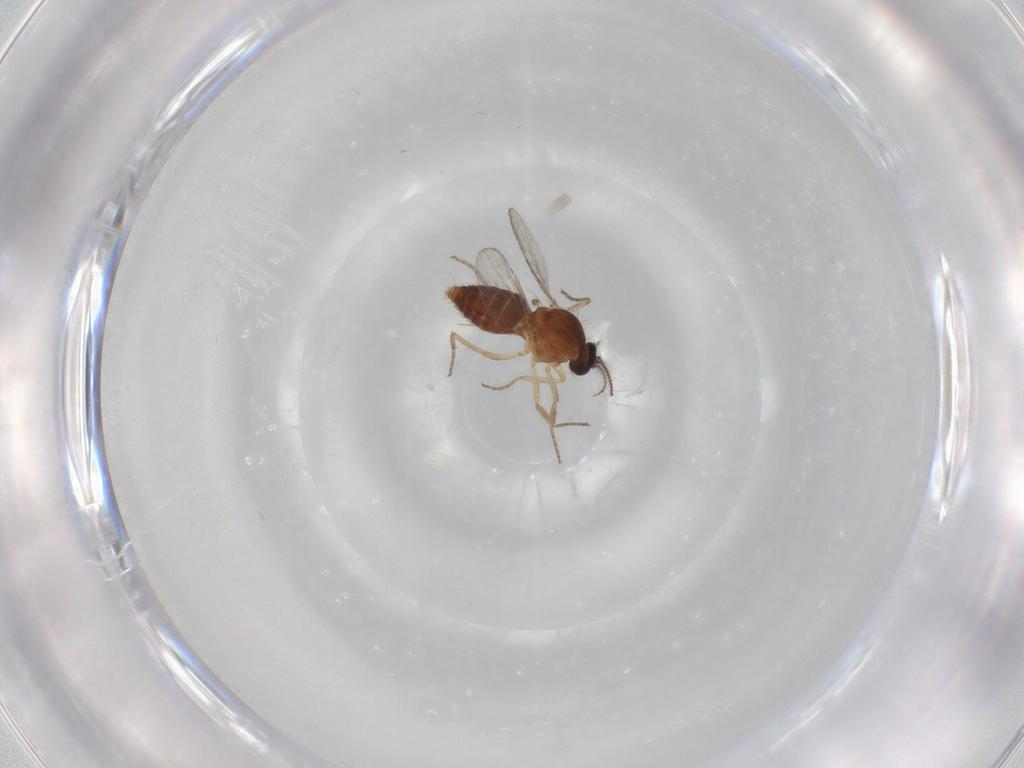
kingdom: Animalia
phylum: Arthropoda
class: Insecta
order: Diptera
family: Ceratopogonidae
